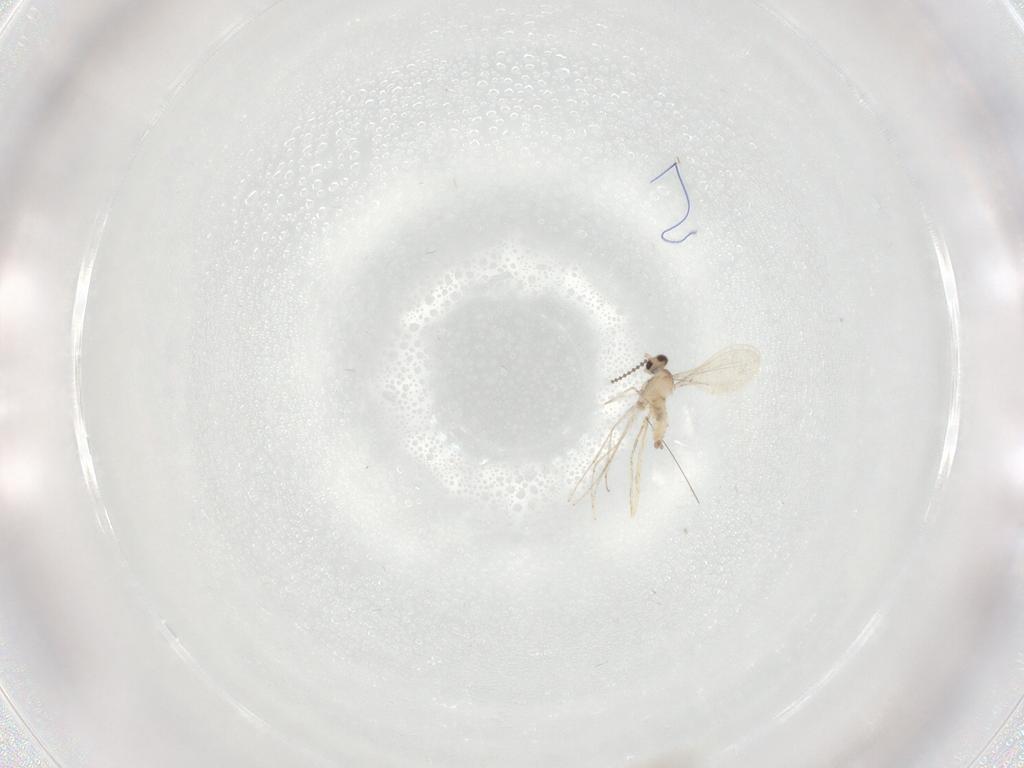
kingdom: Animalia
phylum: Arthropoda
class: Insecta
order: Diptera
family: Cecidomyiidae
